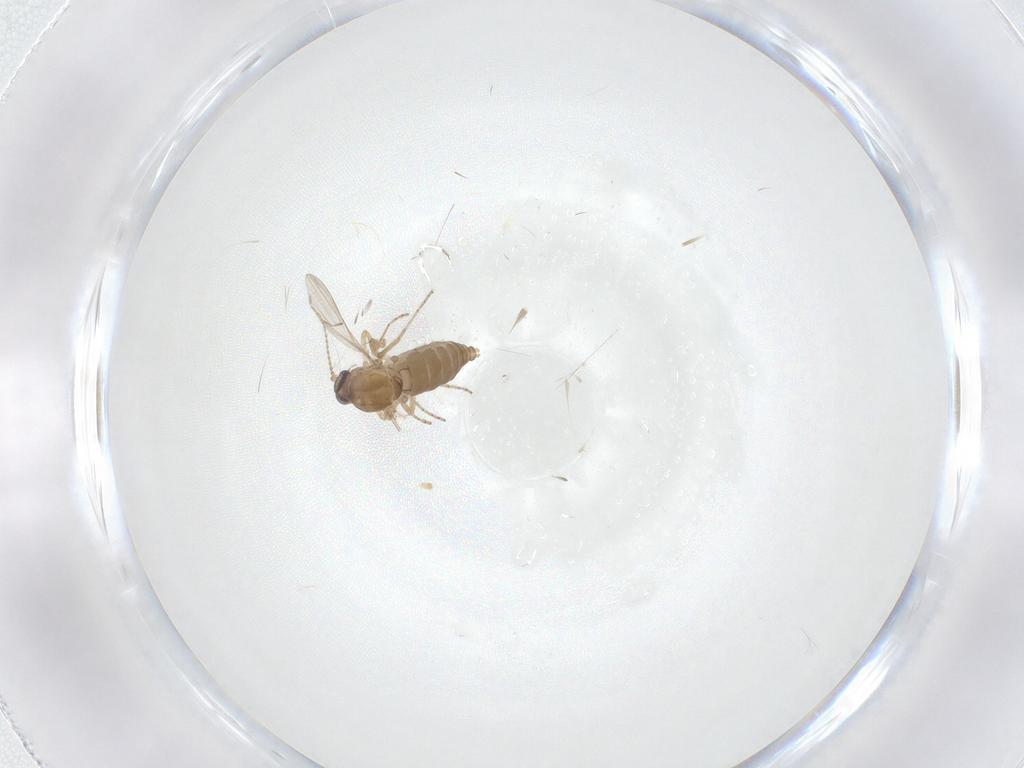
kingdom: Animalia
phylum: Arthropoda
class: Insecta
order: Diptera
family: Ceratopogonidae
